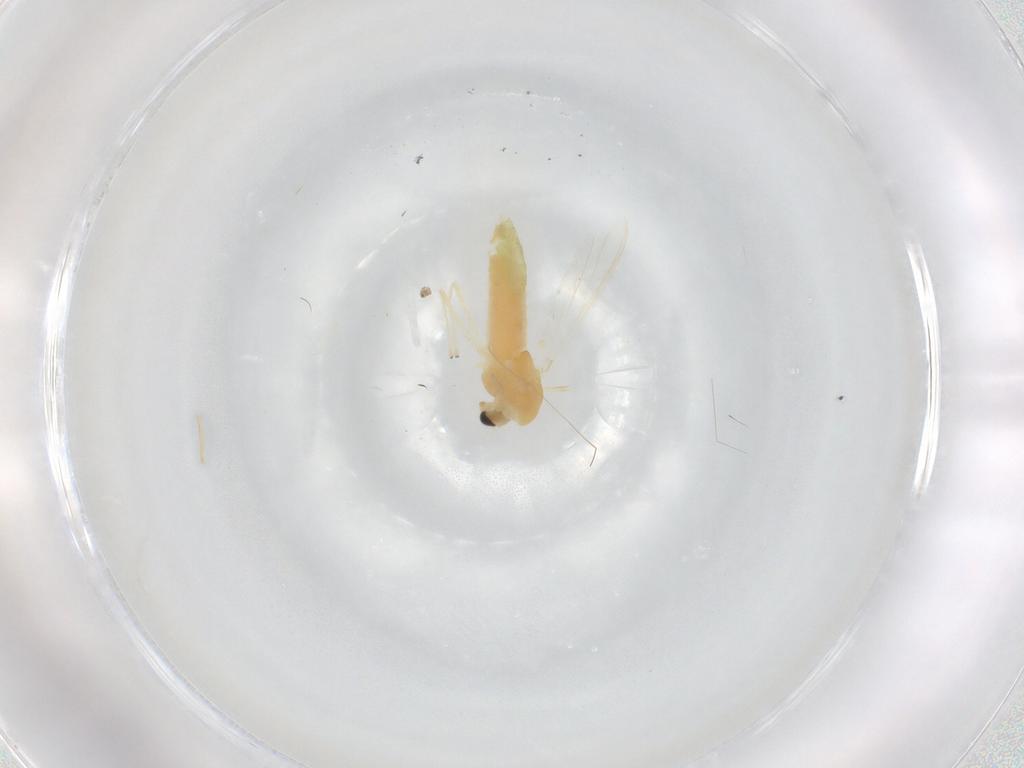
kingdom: Animalia
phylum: Arthropoda
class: Insecta
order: Diptera
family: Chironomidae
